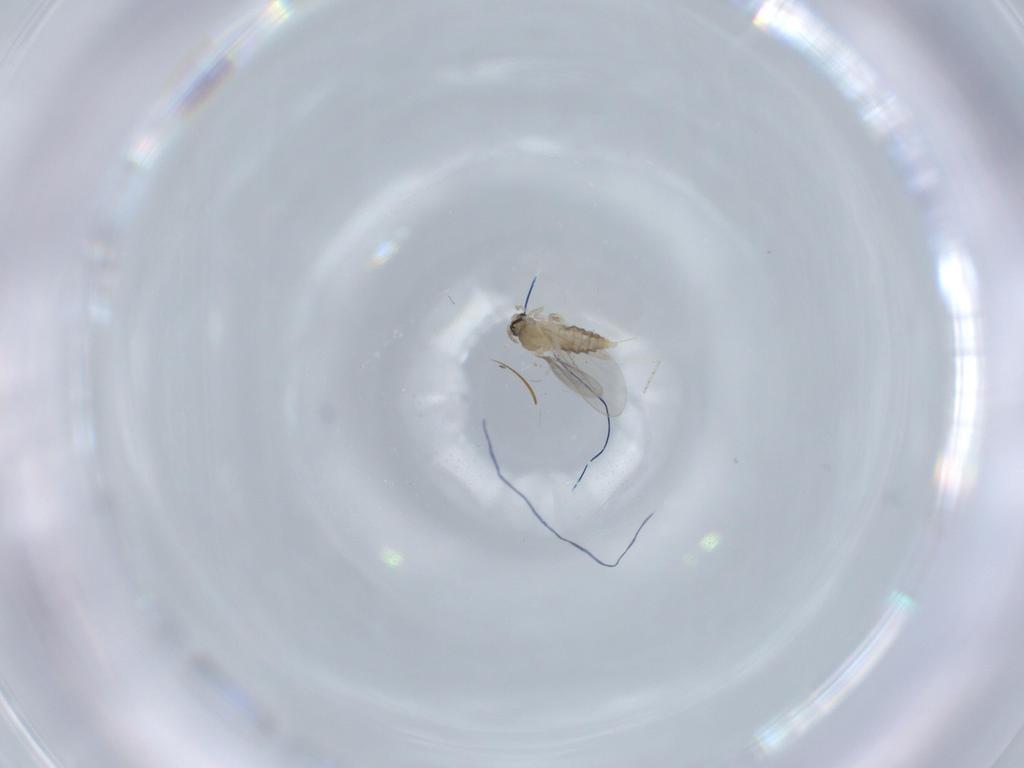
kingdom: Animalia
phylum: Arthropoda
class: Insecta
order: Diptera
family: Cecidomyiidae
